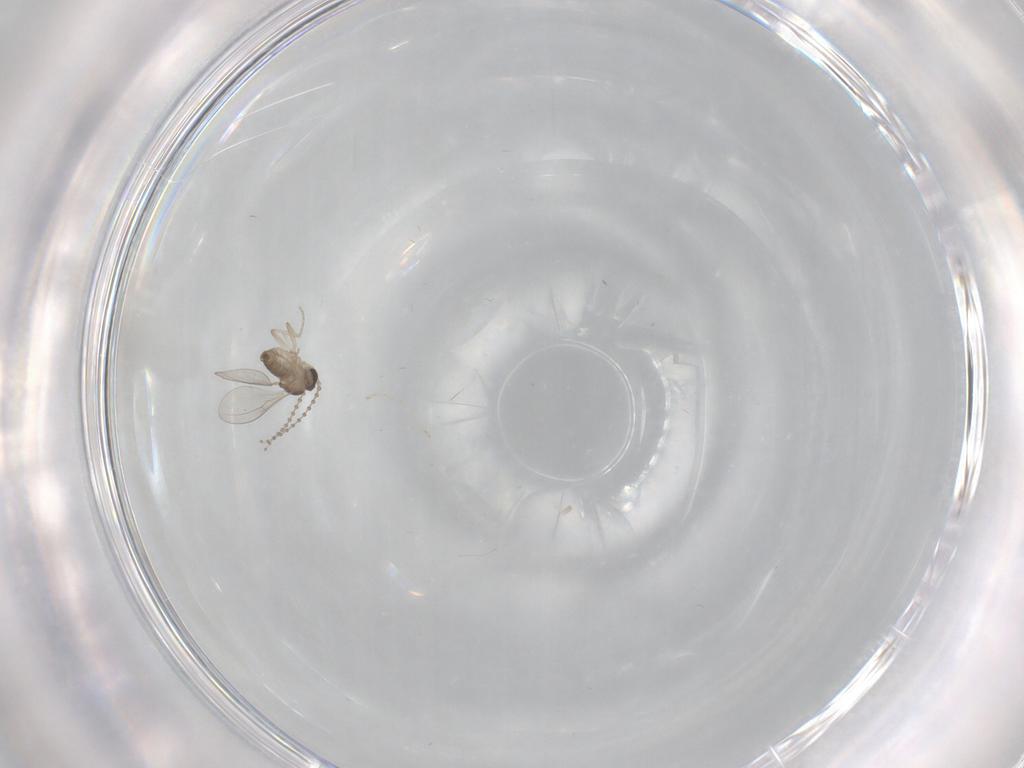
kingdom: Animalia
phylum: Arthropoda
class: Insecta
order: Diptera
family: Cecidomyiidae
